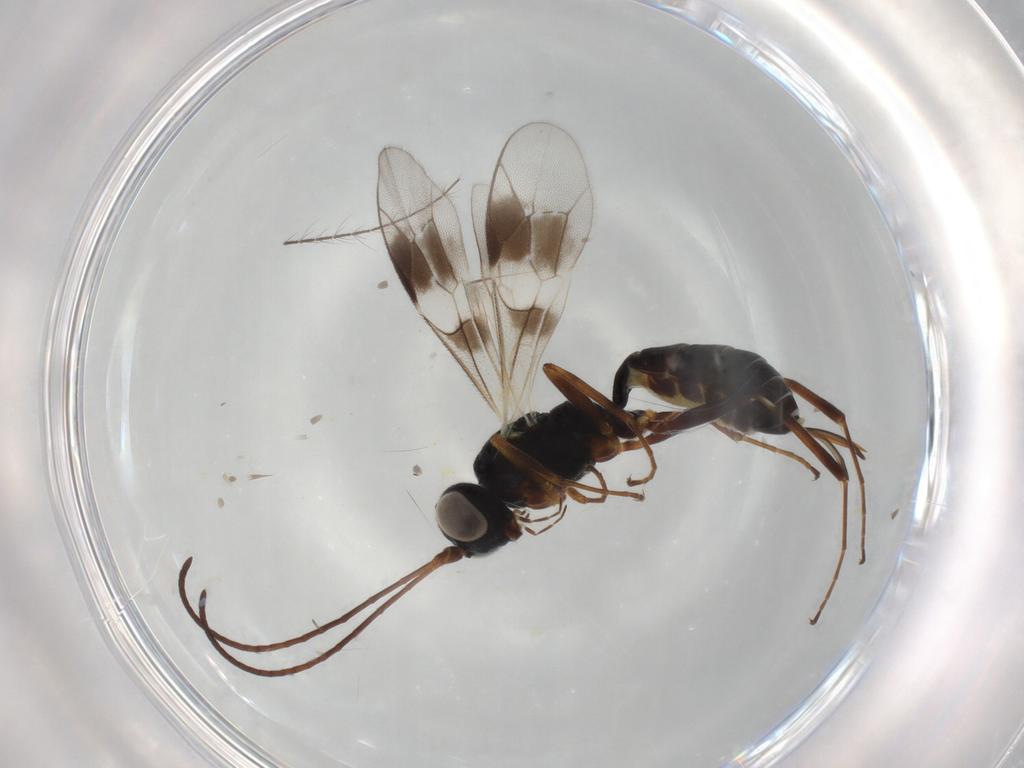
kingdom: Animalia
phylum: Arthropoda
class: Insecta
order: Hymenoptera
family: Ichneumonidae
